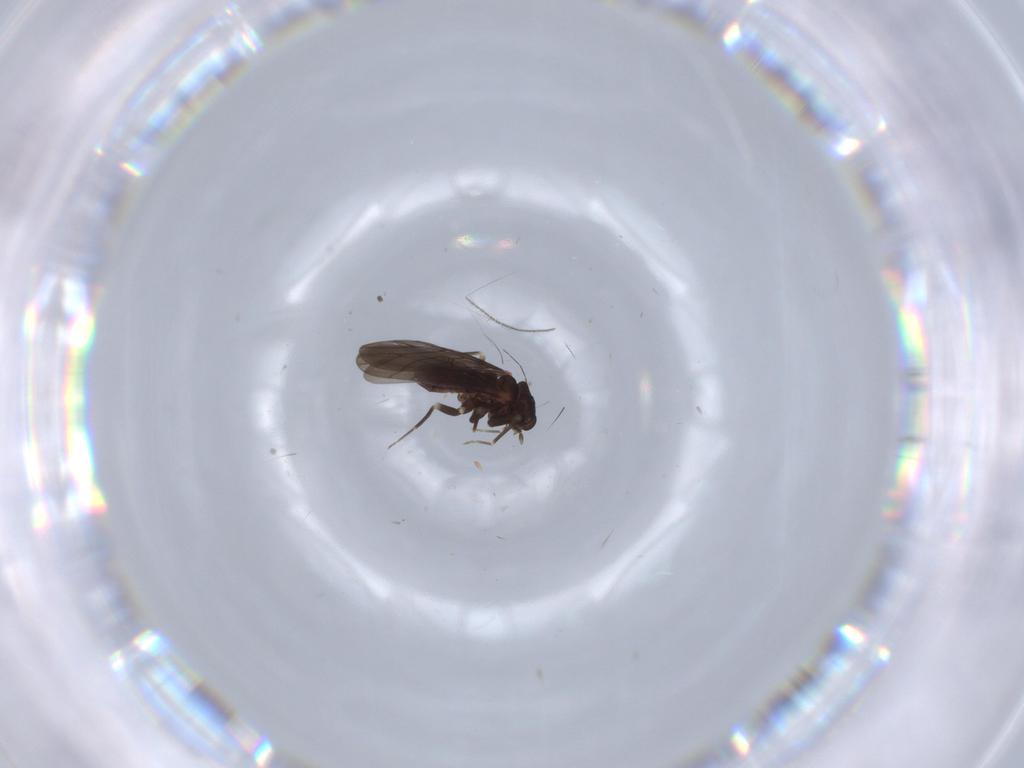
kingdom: Animalia
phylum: Arthropoda
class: Insecta
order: Psocodea
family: Lepidopsocidae
